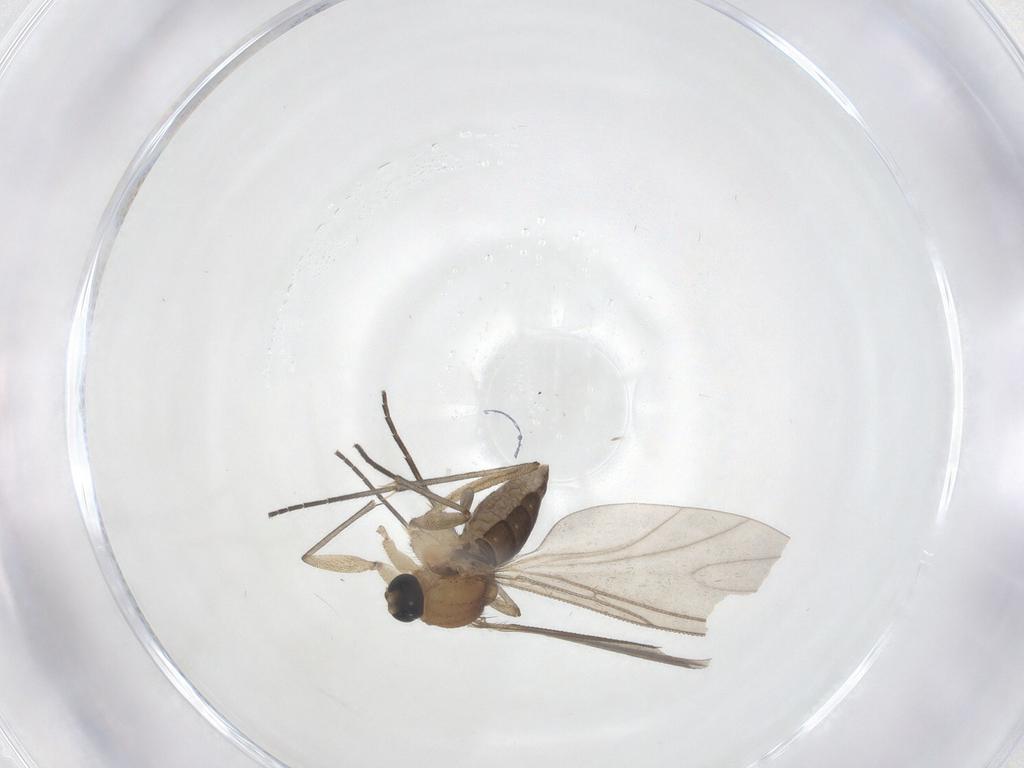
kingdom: Animalia
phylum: Arthropoda
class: Insecta
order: Diptera
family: Sciaridae
